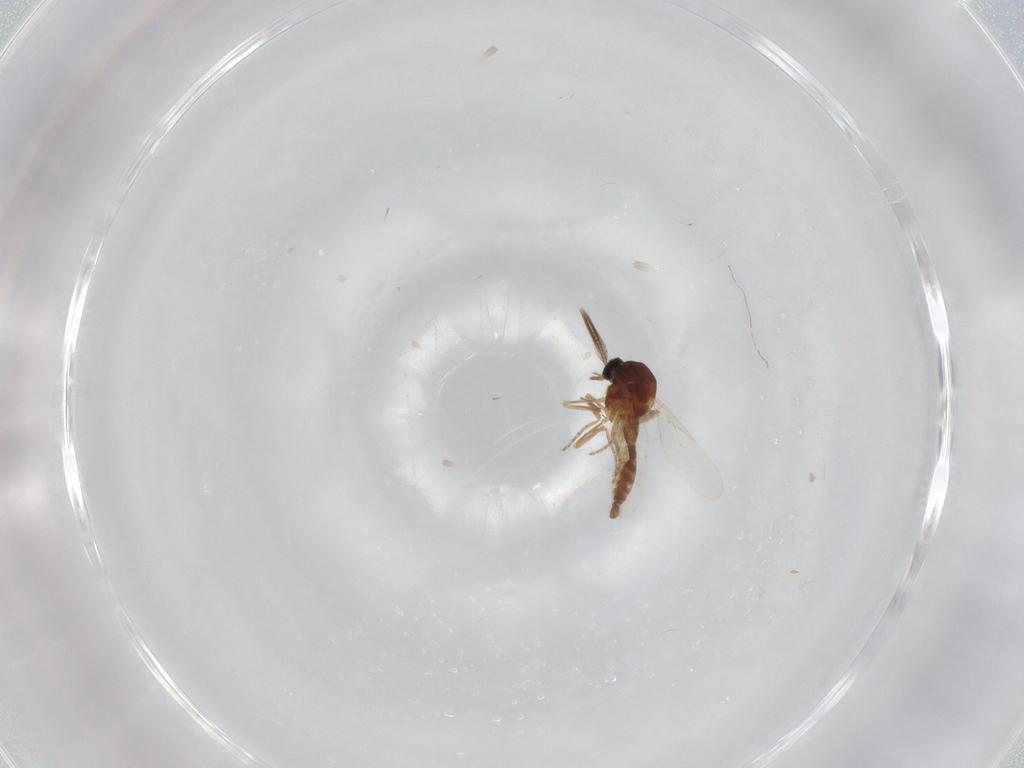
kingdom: Animalia
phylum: Arthropoda
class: Insecta
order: Diptera
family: Ceratopogonidae
